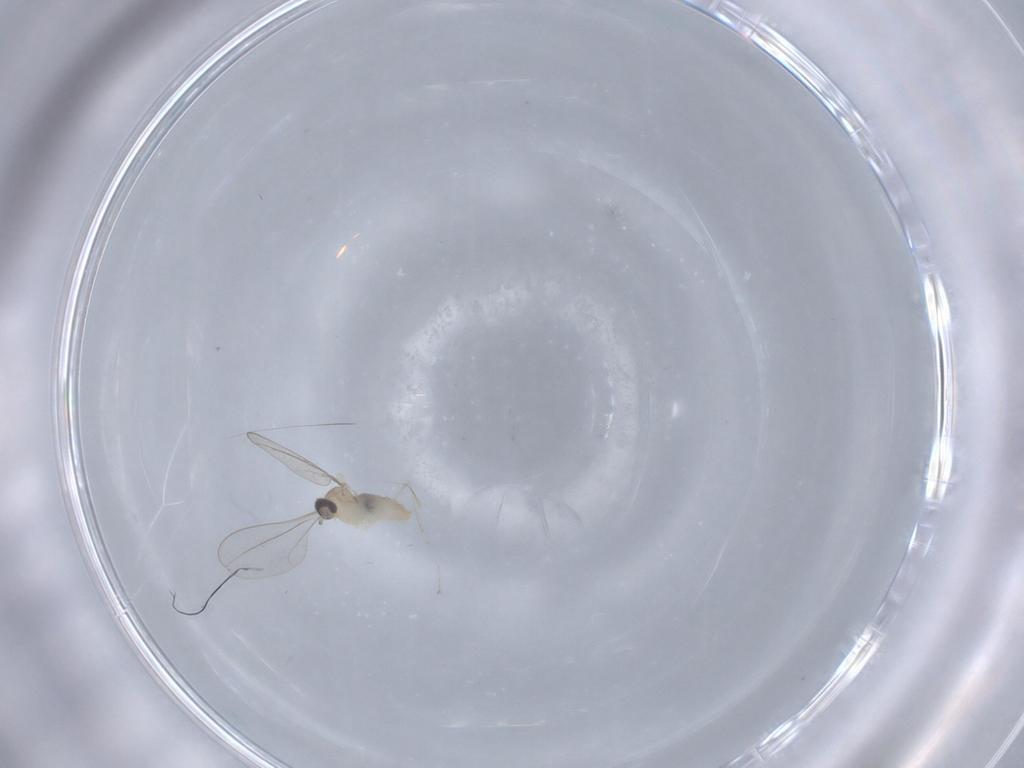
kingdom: Animalia
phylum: Arthropoda
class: Insecta
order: Diptera
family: Cecidomyiidae
